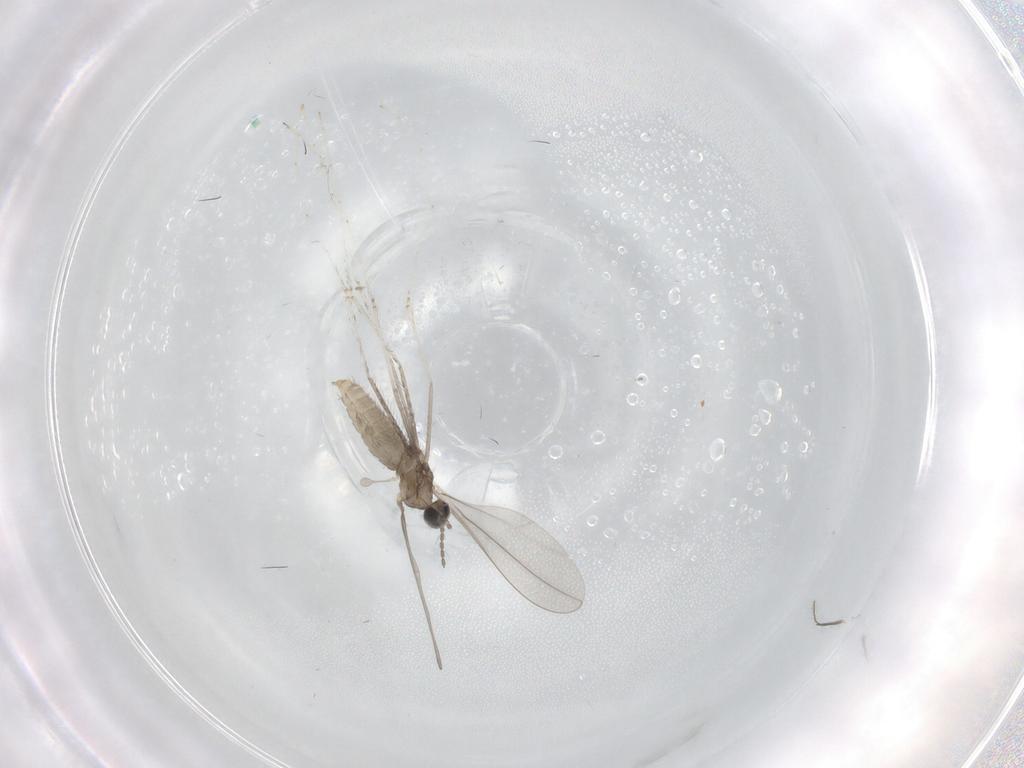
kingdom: Animalia
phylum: Arthropoda
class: Insecta
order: Diptera
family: Cecidomyiidae
